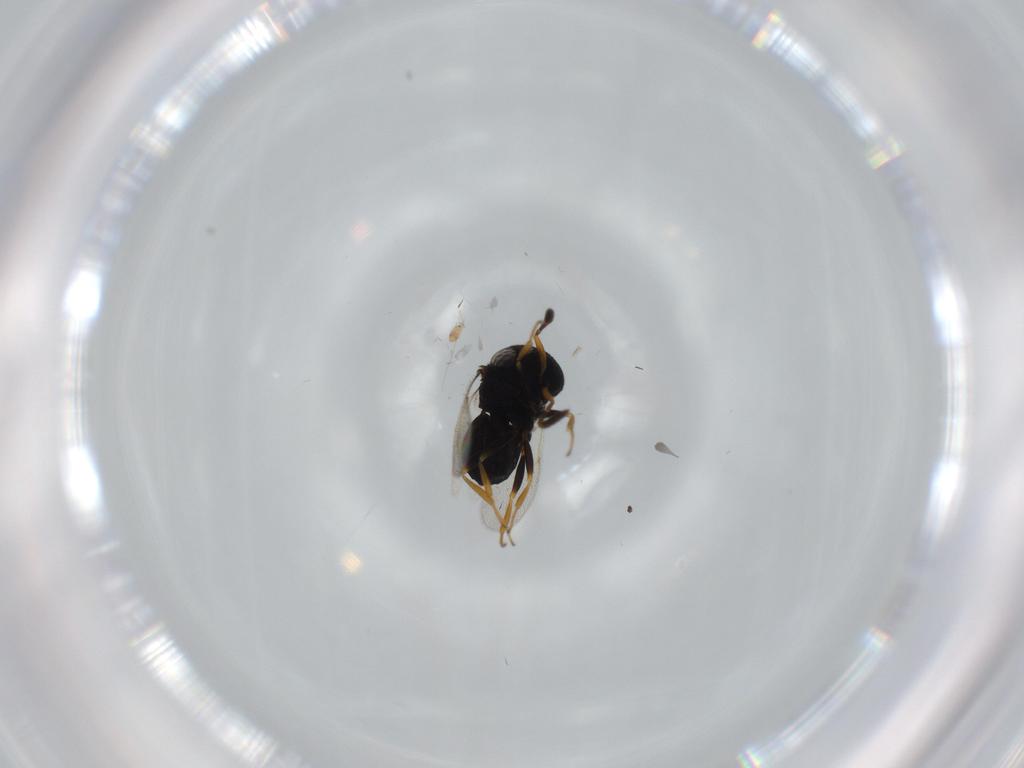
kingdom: Animalia
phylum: Arthropoda
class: Insecta
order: Hymenoptera
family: Scelionidae
